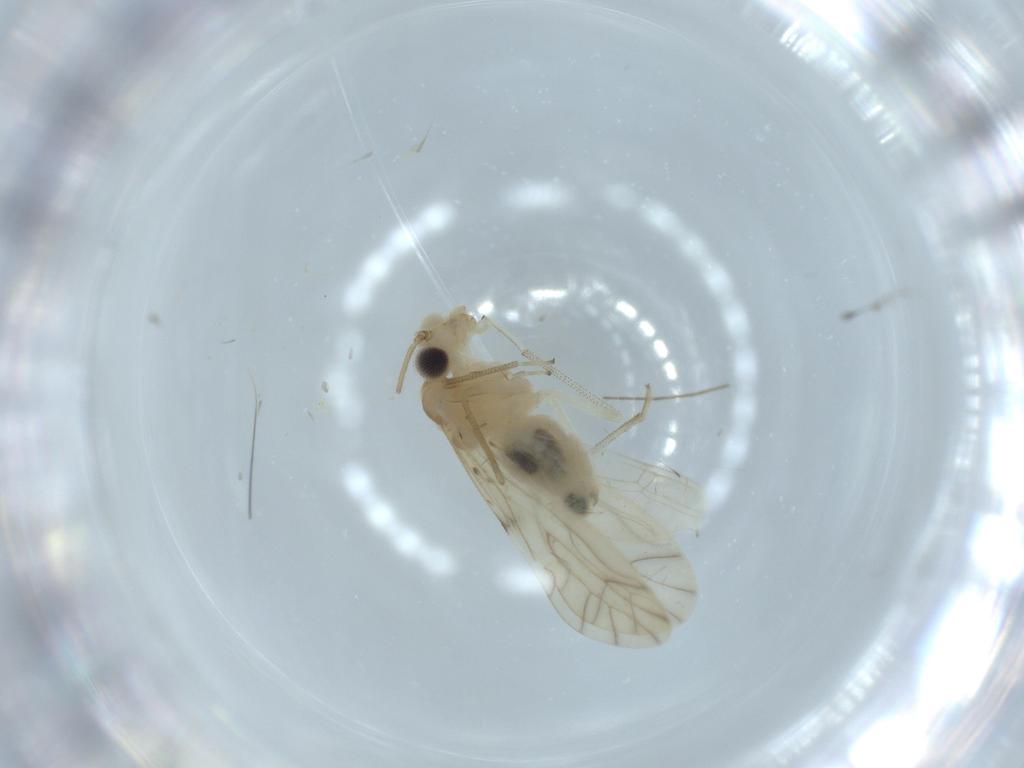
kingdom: Animalia
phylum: Arthropoda
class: Insecta
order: Psocodea
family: Caeciliusidae
